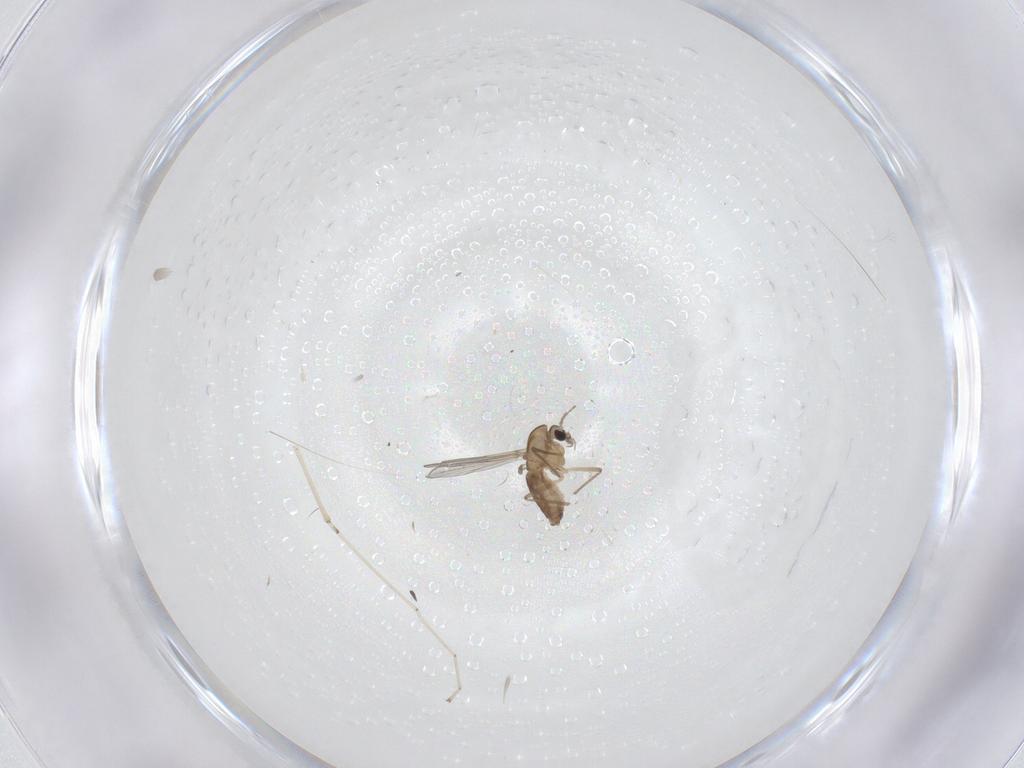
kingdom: Animalia
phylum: Arthropoda
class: Insecta
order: Diptera
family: Chironomidae
